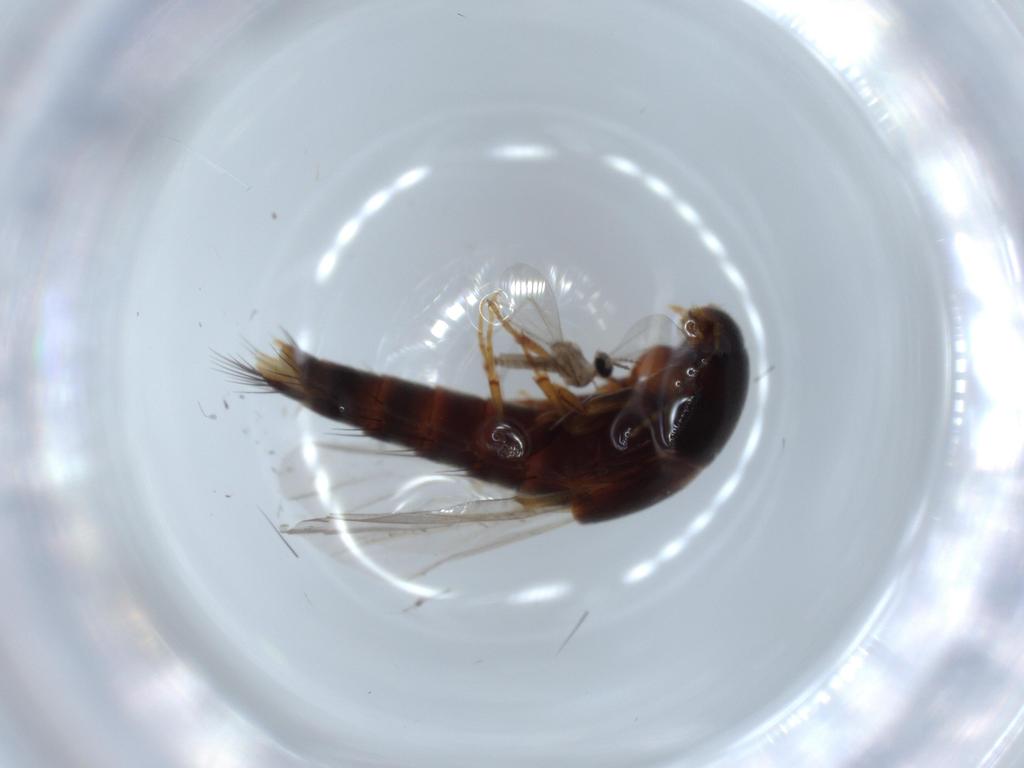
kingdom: Animalia
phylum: Arthropoda
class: Insecta
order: Coleoptera
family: Staphylinidae
